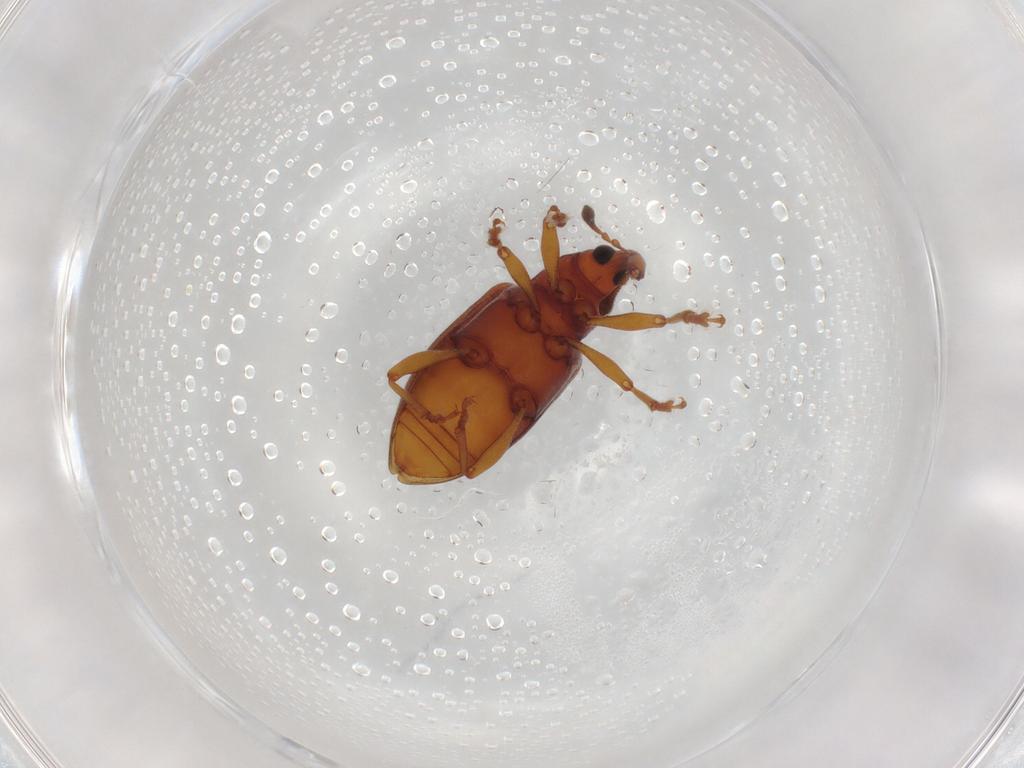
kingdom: Animalia
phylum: Arthropoda
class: Insecta
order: Coleoptera
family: Curculionidae
